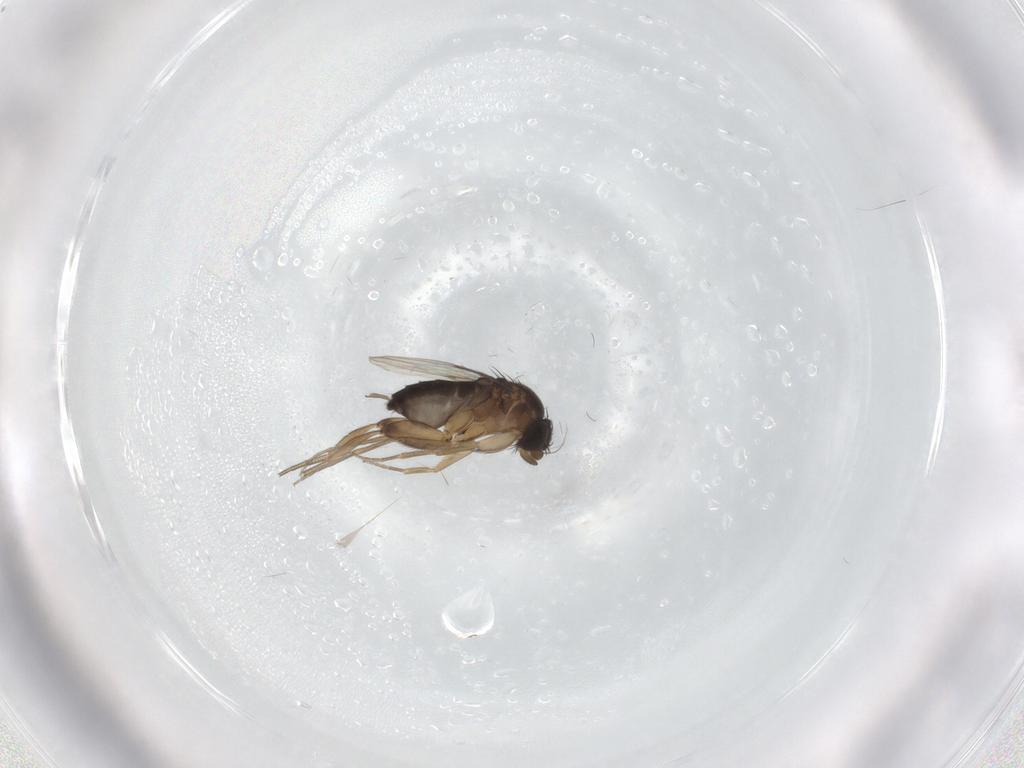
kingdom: Animalia
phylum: Arthropoda
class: Insecta
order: Diptera
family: Phoridae
